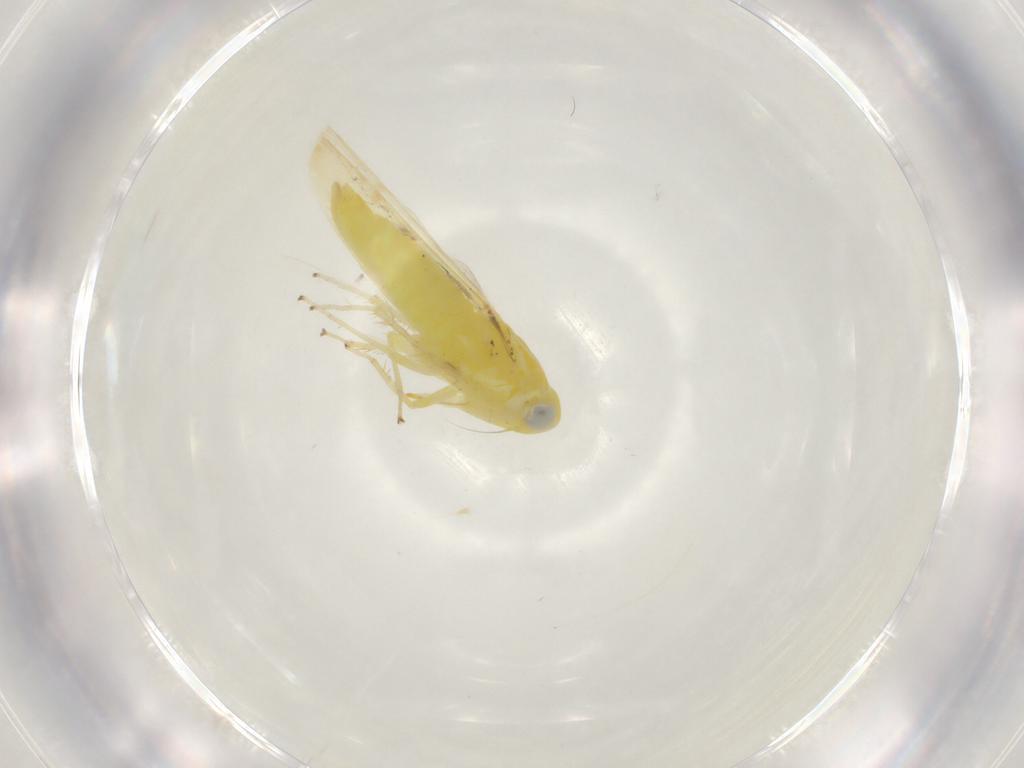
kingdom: Animalia
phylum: Arthropoda
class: Insecta
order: Hemiptera
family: Cicadellidae
